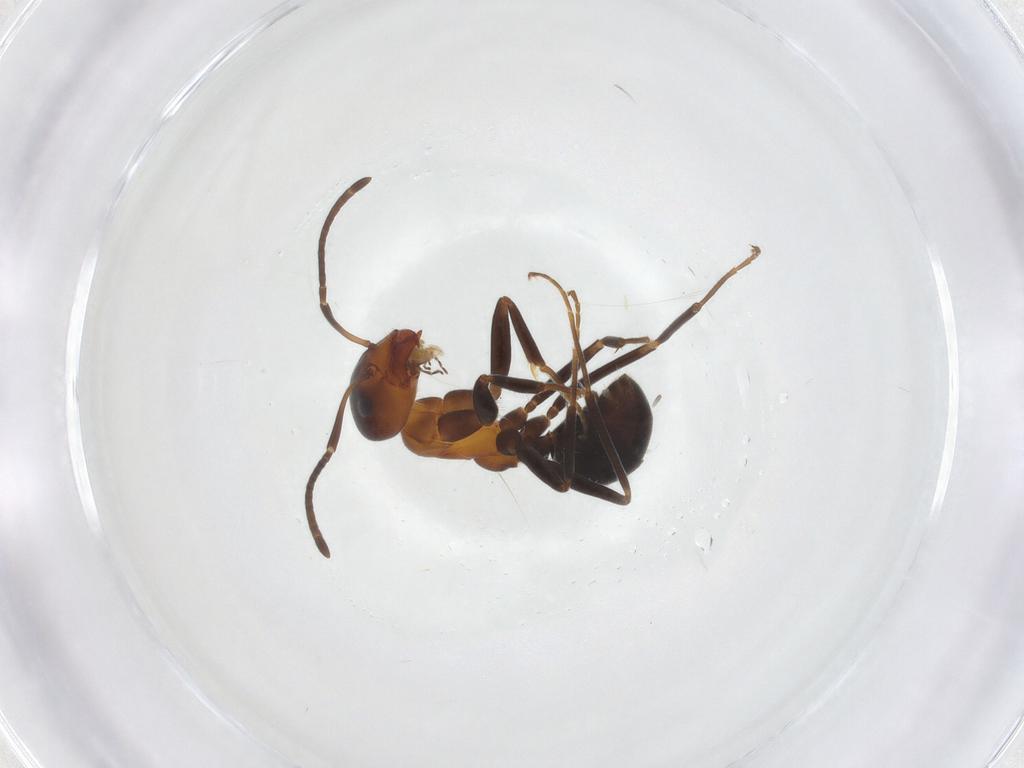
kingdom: Animalia
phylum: Arthropoda
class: Insecta
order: Hymenoptera
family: Formicidae
